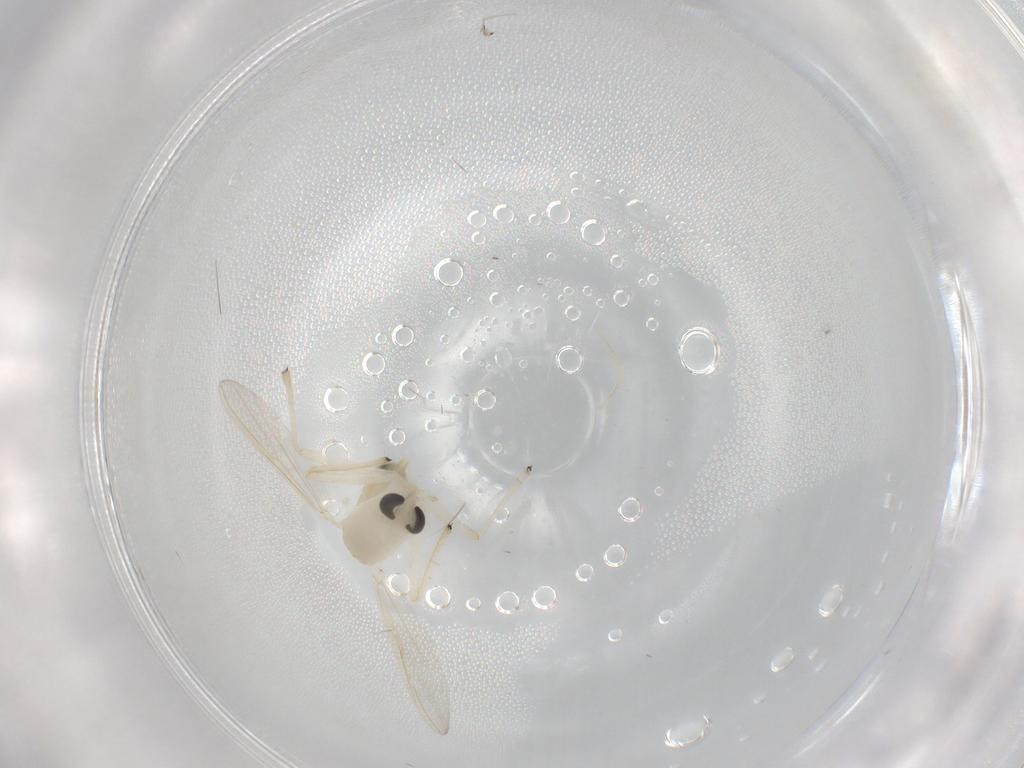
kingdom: Animalia
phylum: Arthropoda
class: Insecta
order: Diptera
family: Chironomidae
